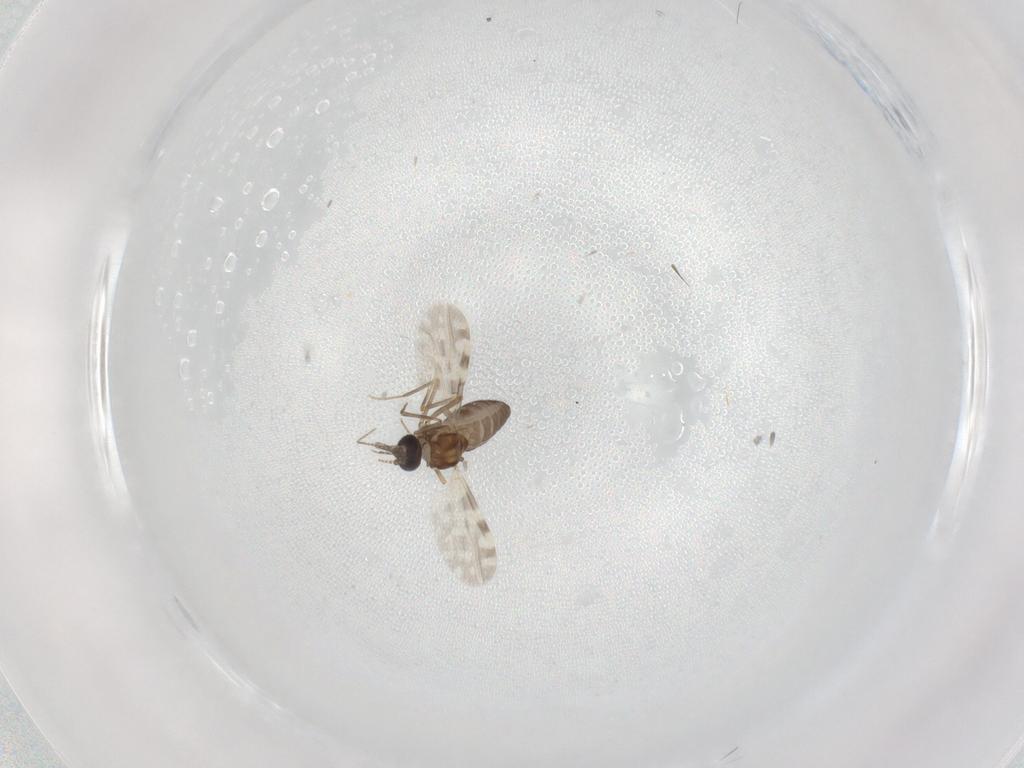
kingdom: Animalia
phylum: Arthropoda
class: Insecta
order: Diptera
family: Ceratopogonidae
